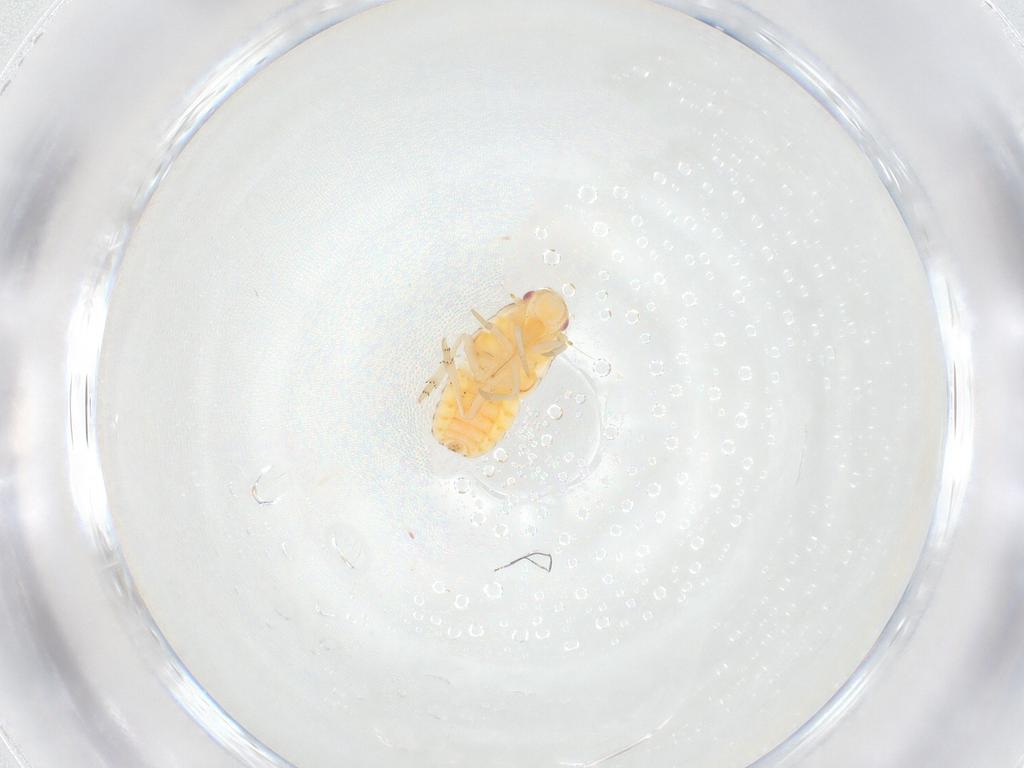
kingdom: Animalia
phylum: Arthropoda
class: Insecta
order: Hemiptera
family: Flatidae
